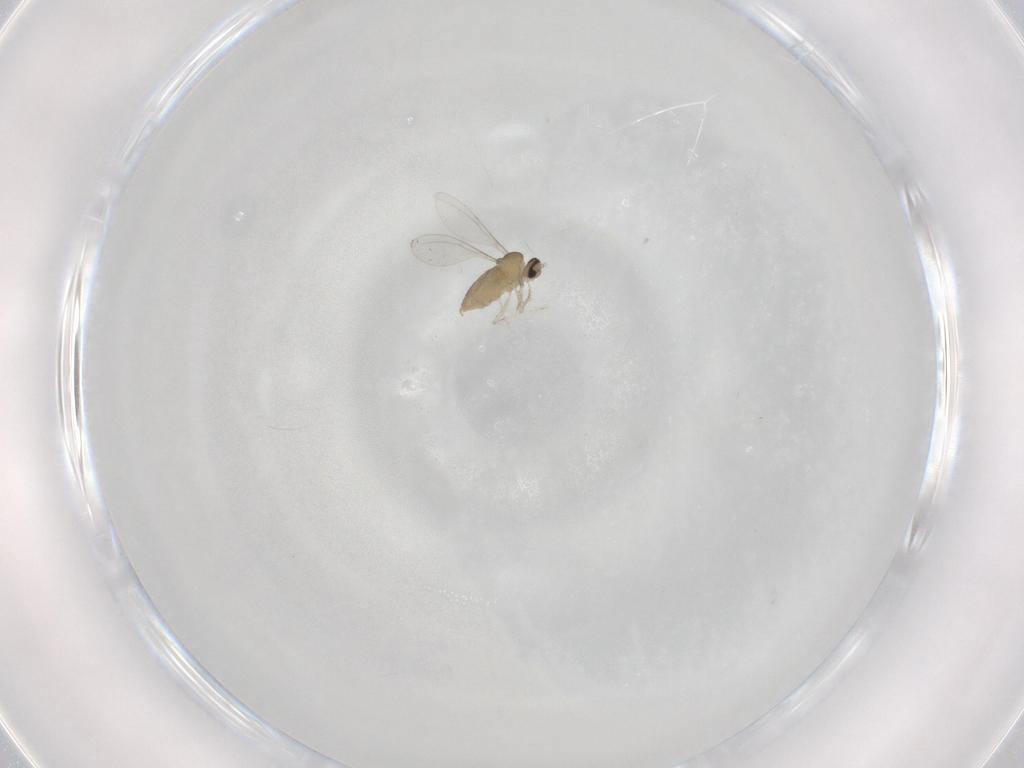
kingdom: Animalia
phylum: Arthropoda
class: Insecta
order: Diptera
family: Cecidomyiidae
